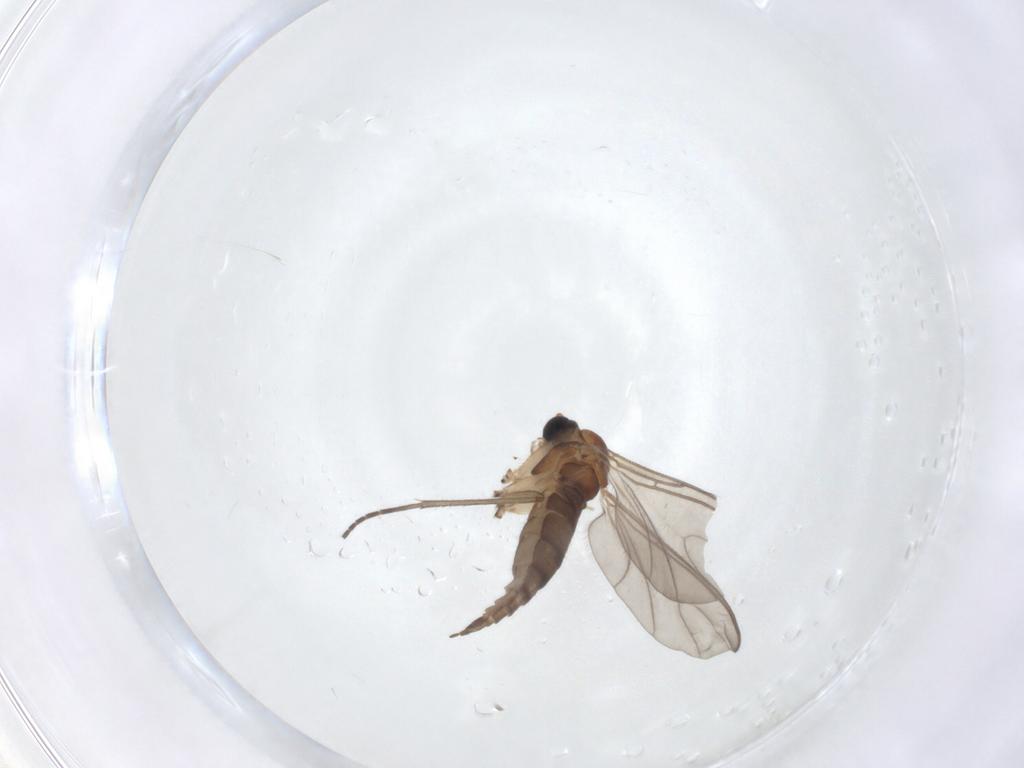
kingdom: Animalia
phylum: Arthropoda
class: Insecta
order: Diptera
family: Sciaridae
